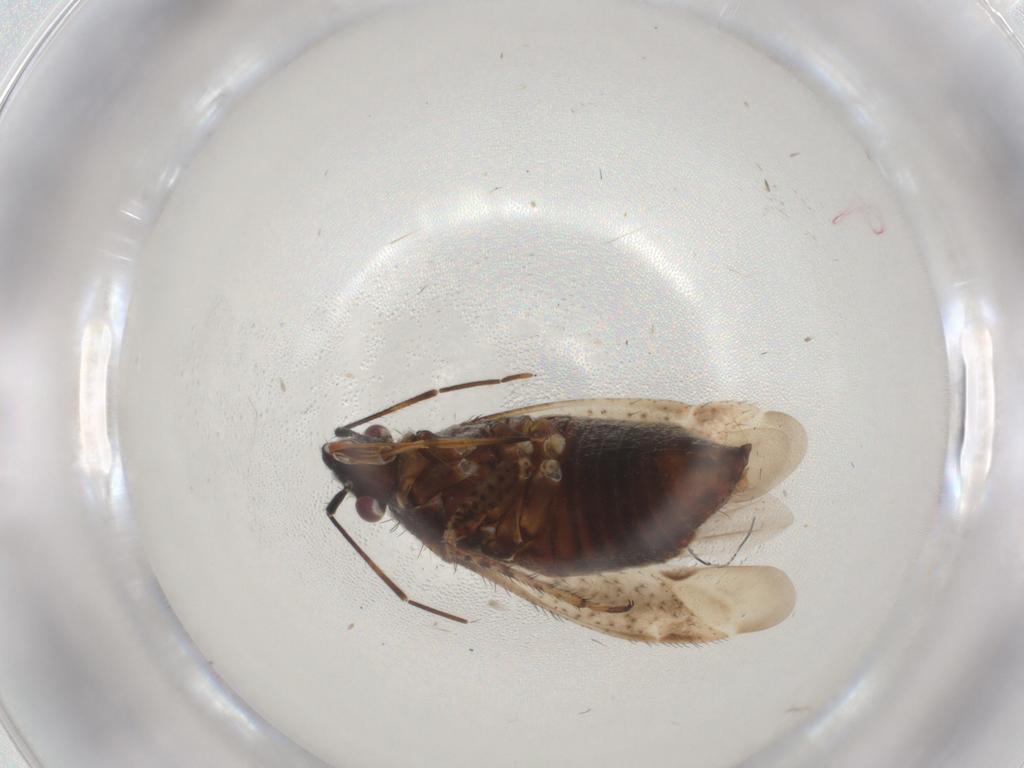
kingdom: Animalia
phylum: Arthropoda
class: Insecta
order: Hemiptera
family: Miridae
